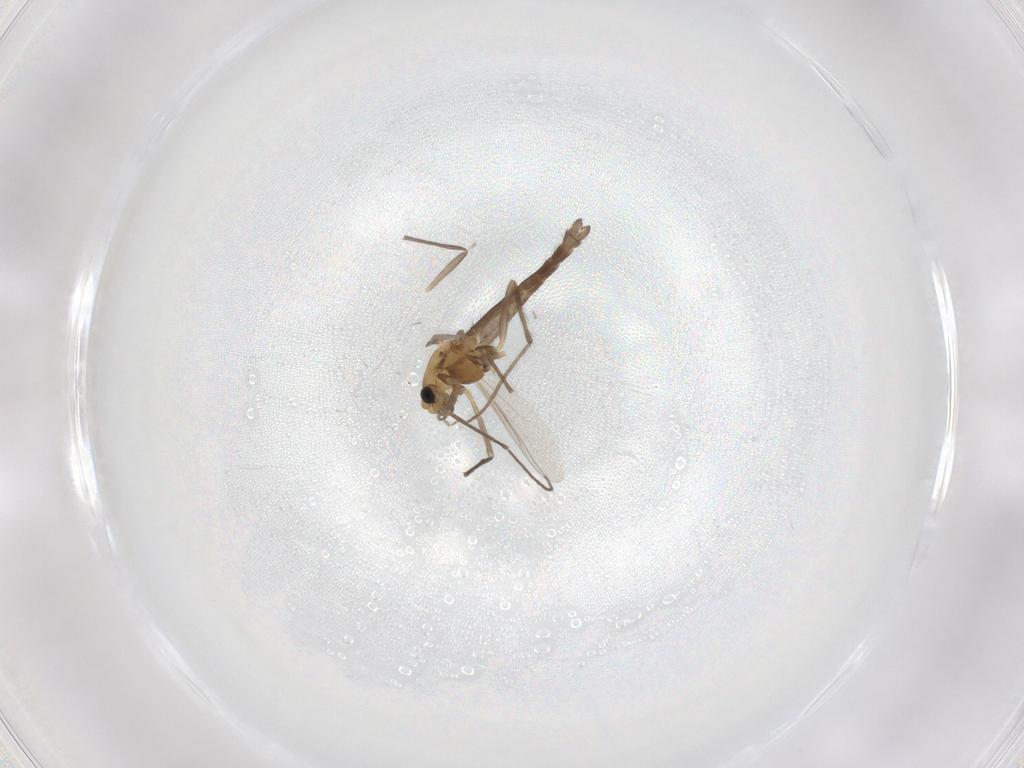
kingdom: Animalia
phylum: Arthropoda
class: Insecta
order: Diptera
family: Chironomidae
